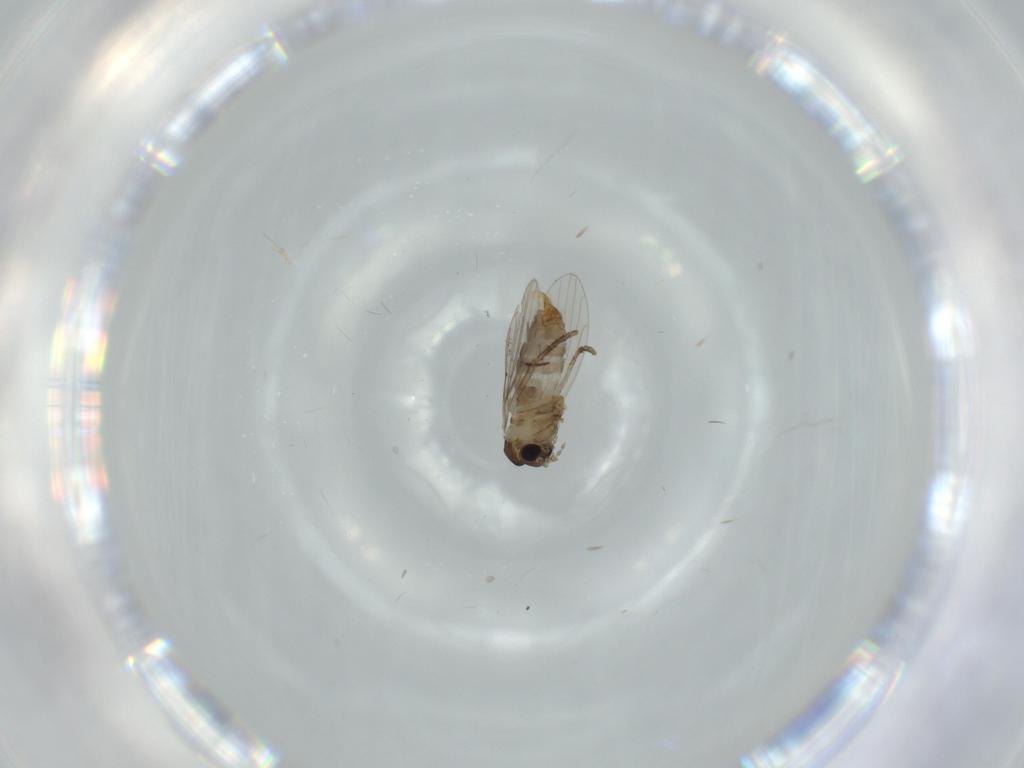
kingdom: Animalia
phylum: Arthropoda
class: Insecta
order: Diptera
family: Psychodidae
